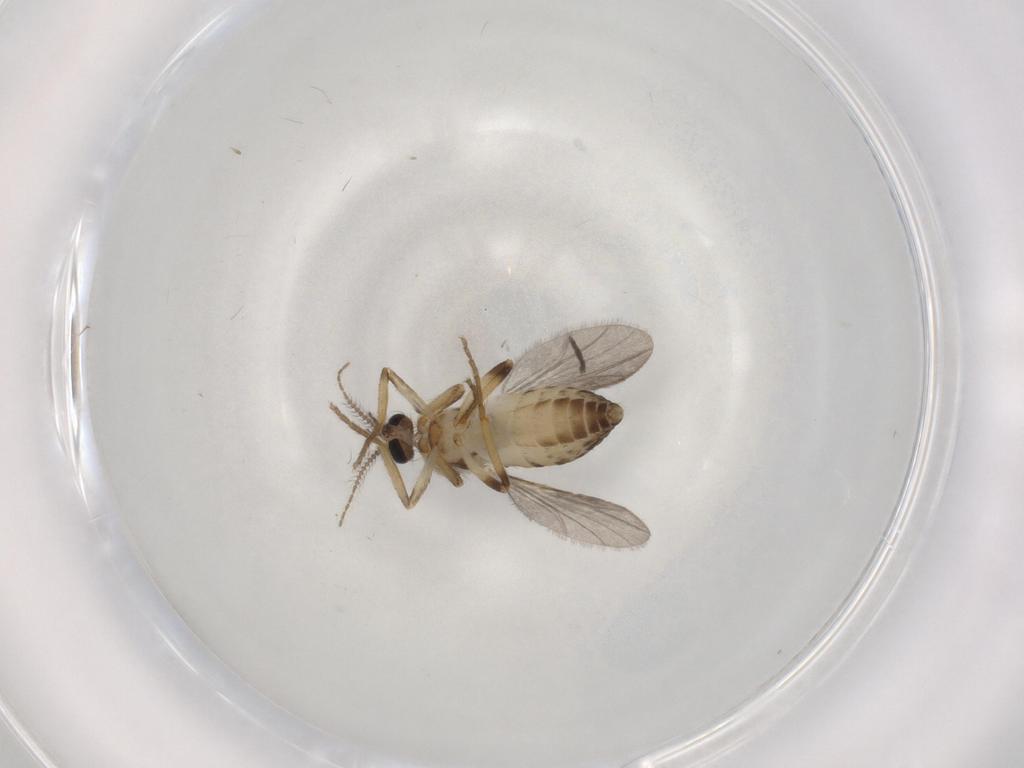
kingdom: Animalia
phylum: Arthropoda
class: Insecta
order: Diptera
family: Ceratopogonidae
